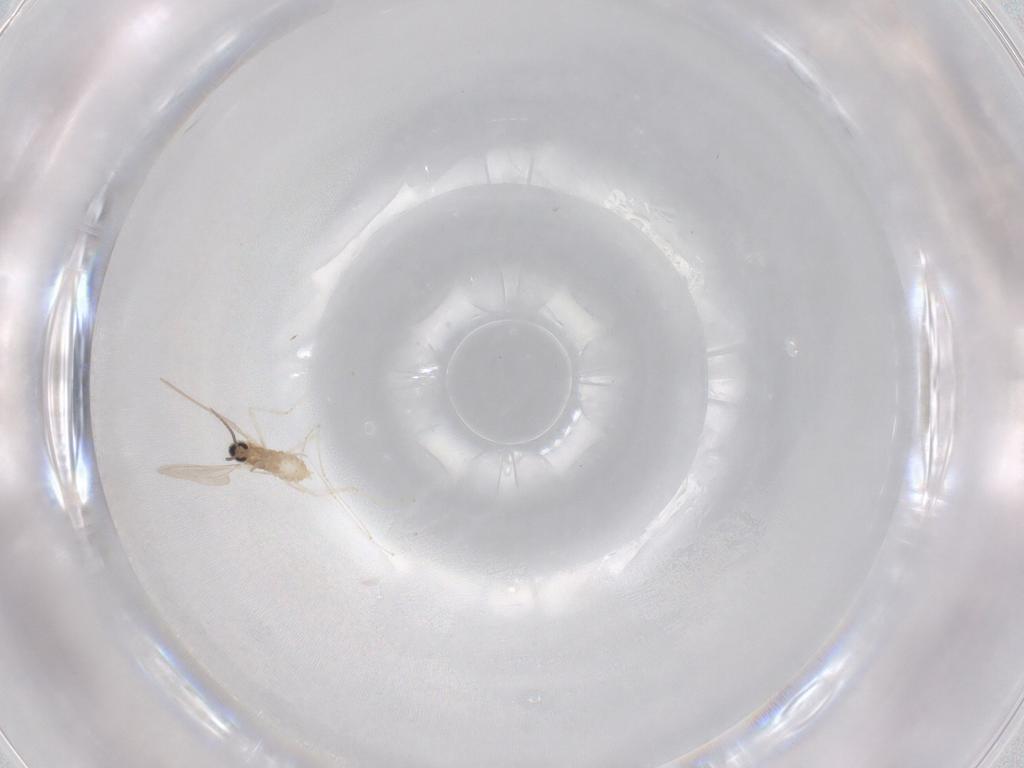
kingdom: Animalia
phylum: Arthropoda
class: Insecta
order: Diptera
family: Cecidomyiidae
